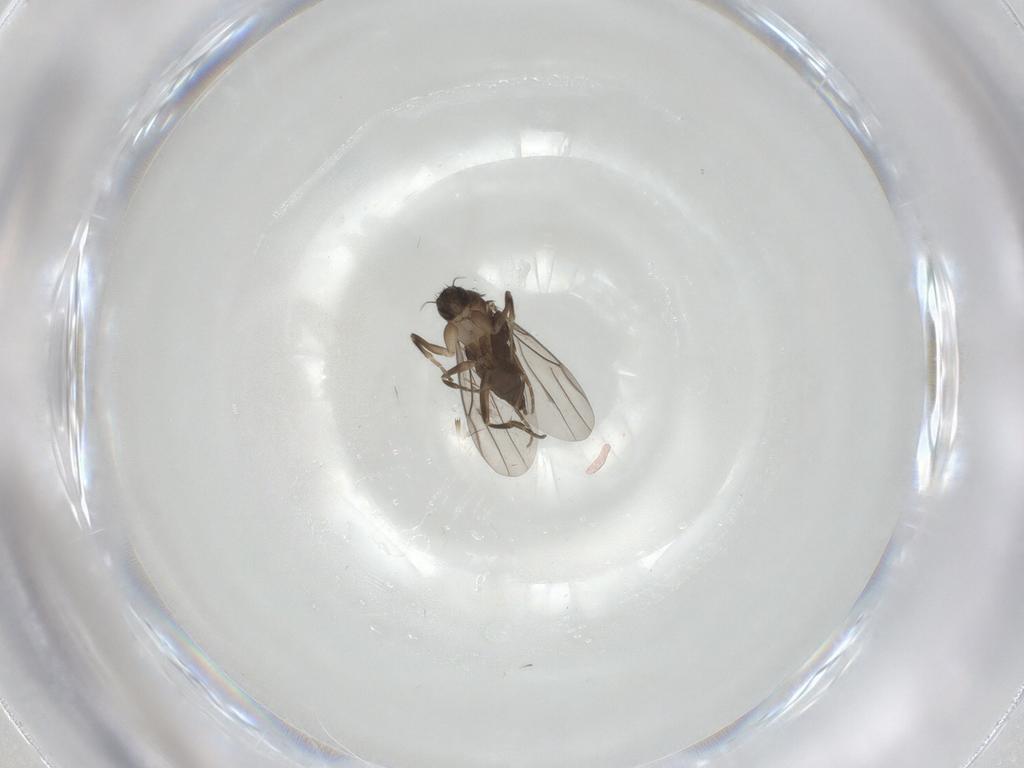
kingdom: Animalia
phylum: Arthropoda
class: Insecta
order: Diptera
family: Phoridae
